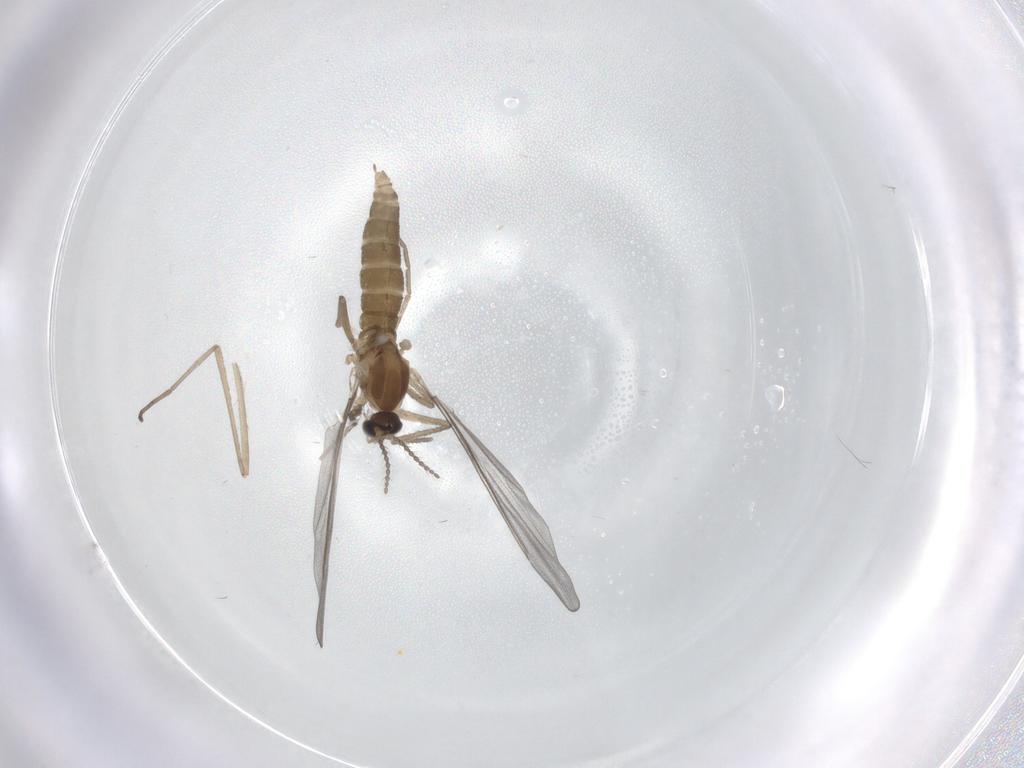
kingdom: Animalia
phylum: Arthropoda
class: Insecta
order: Diptera
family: Cecidomyiidae
